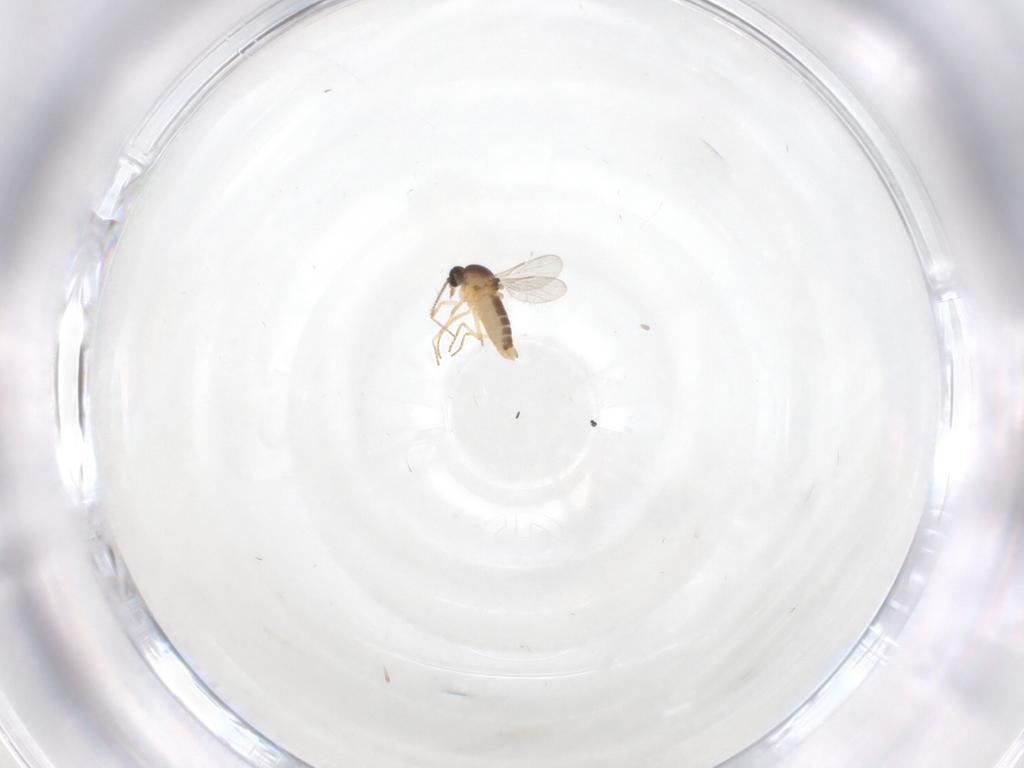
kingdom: Animalia
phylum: Arthropoda
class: Insecta
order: Diptera
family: Ceratopogonidae
